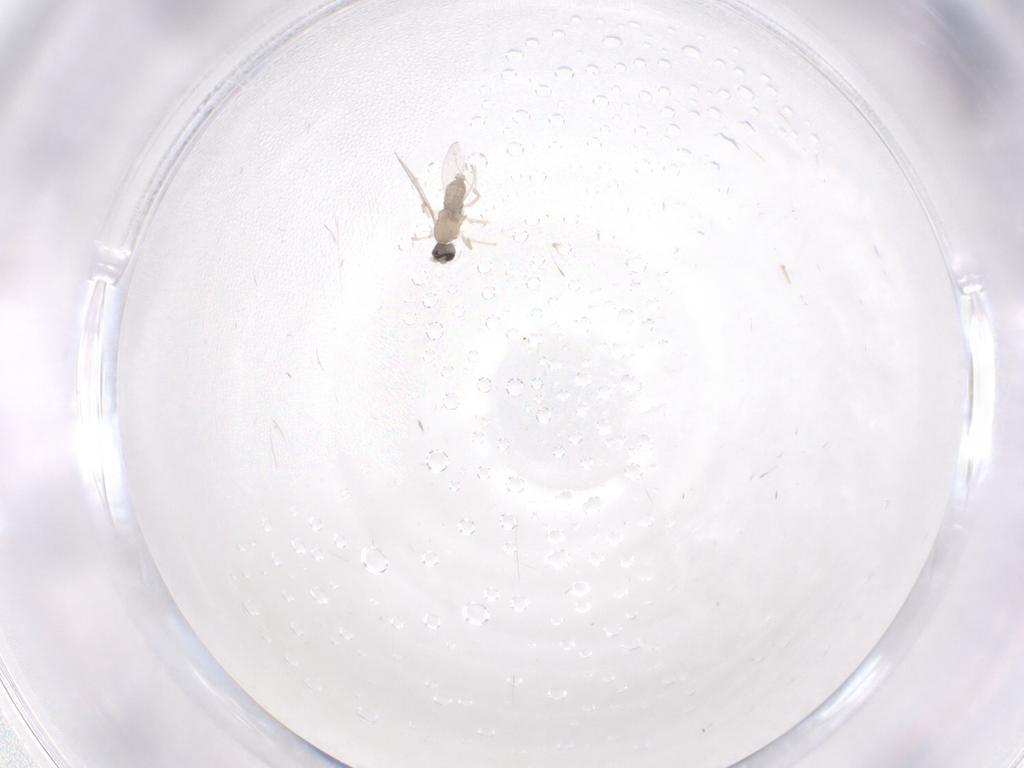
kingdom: Animalia
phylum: Arthropoda
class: Insecta
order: Diptera
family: Cecidomyiidae
